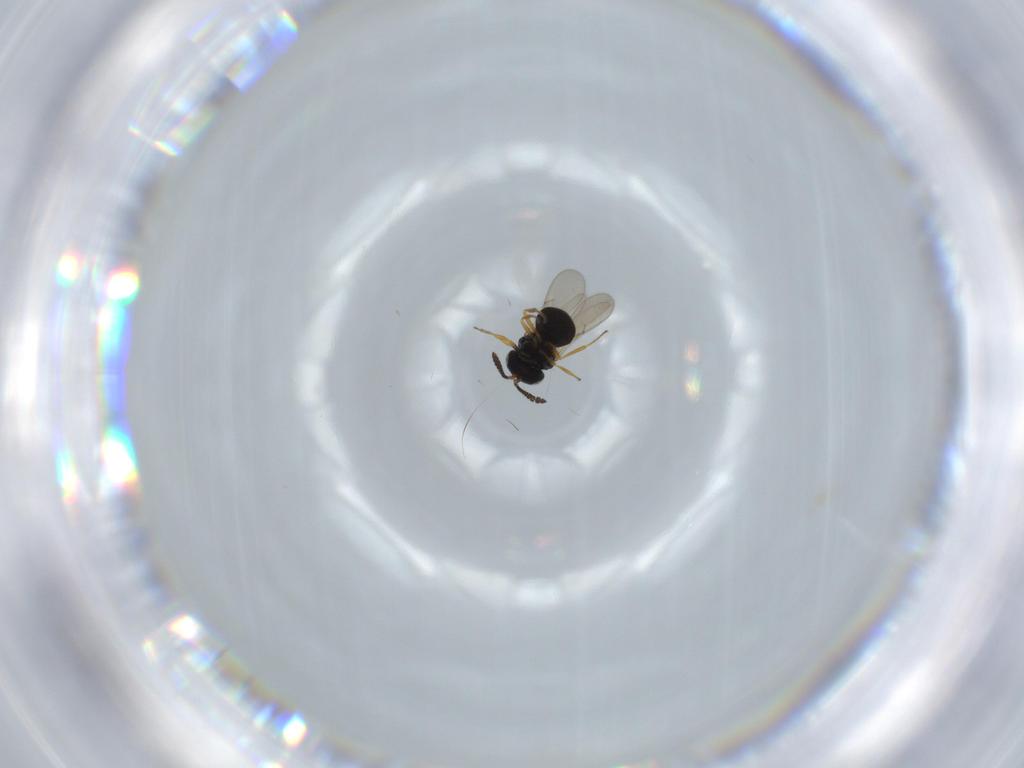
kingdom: Animalia
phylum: Arthropoda
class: Insecta
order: Hymenoptera
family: Scelionidae
